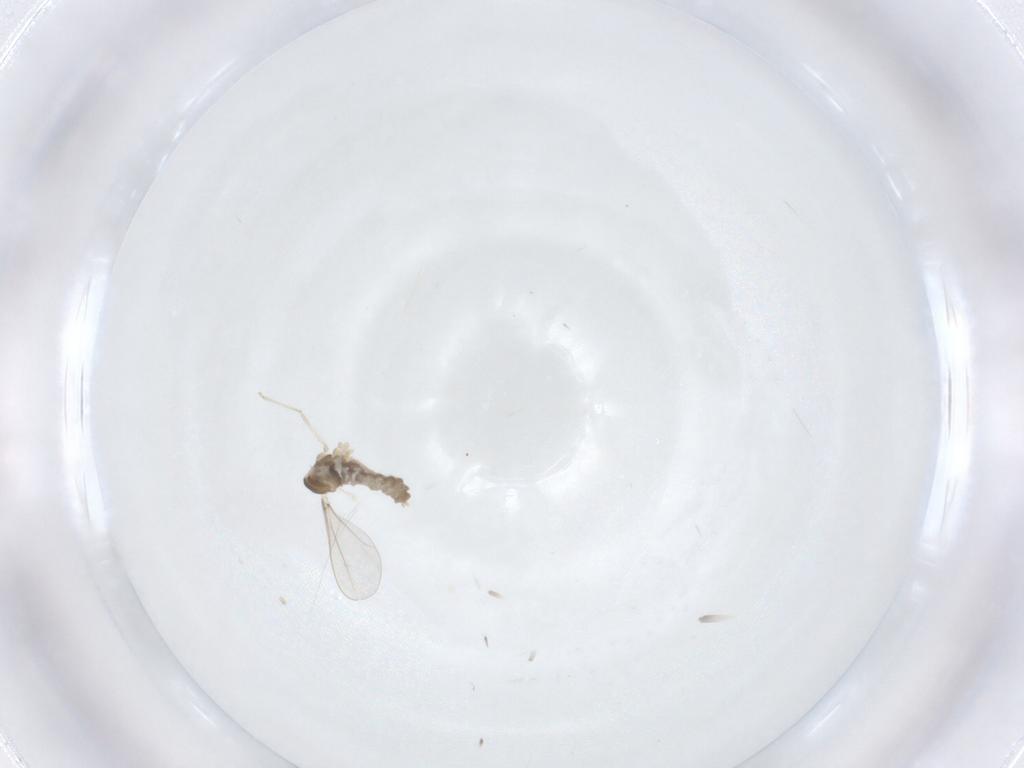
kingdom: Animalia
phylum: Arthropoda
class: Insecta
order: Diptera
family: Cecidomyiidae
